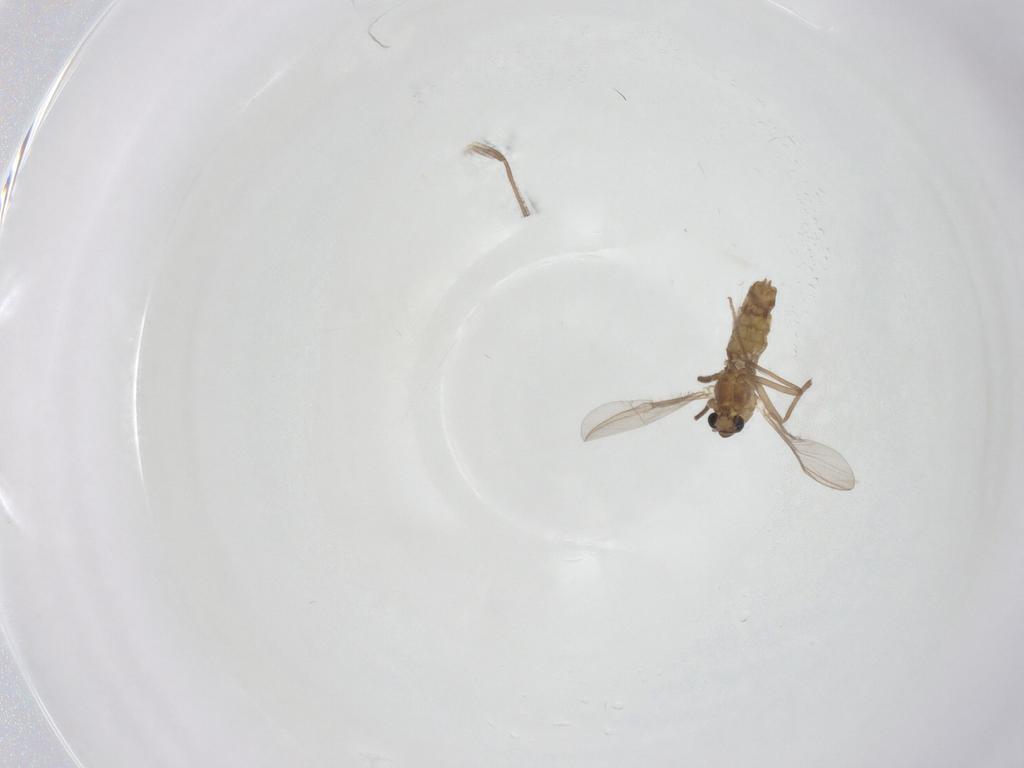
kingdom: Animalia
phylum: Arthropoda
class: Insecta
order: Diptera
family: Chironomidae
